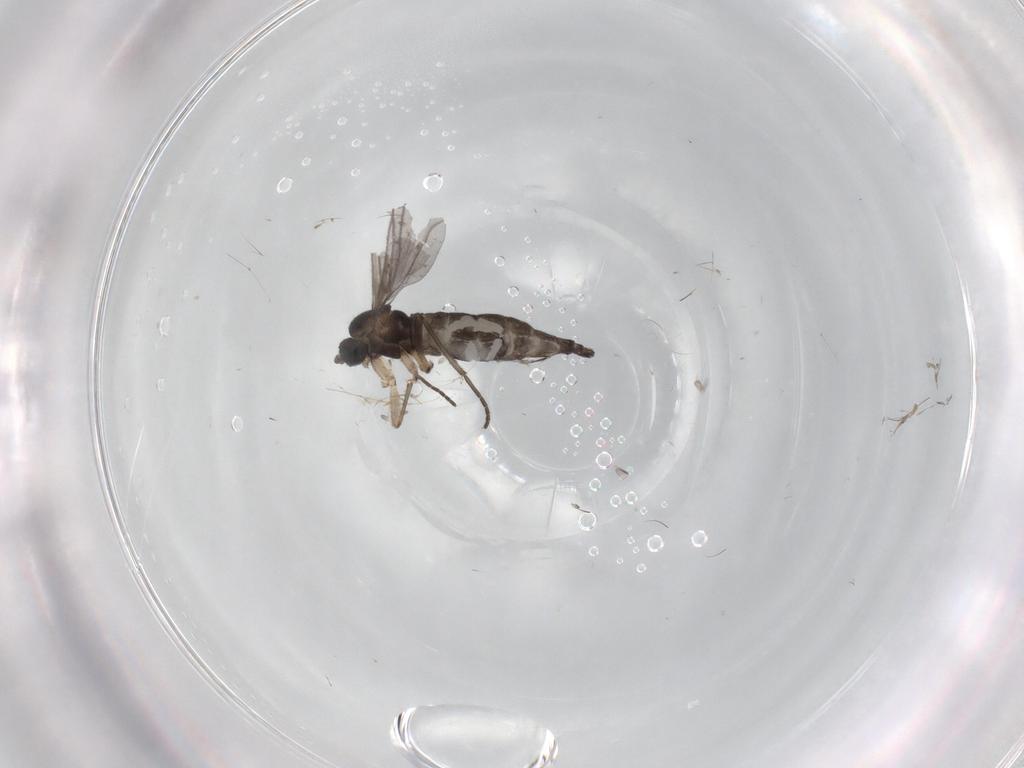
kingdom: Animalia
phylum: Arthropoda
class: Insecta
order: Diptera
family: Sciaridae
